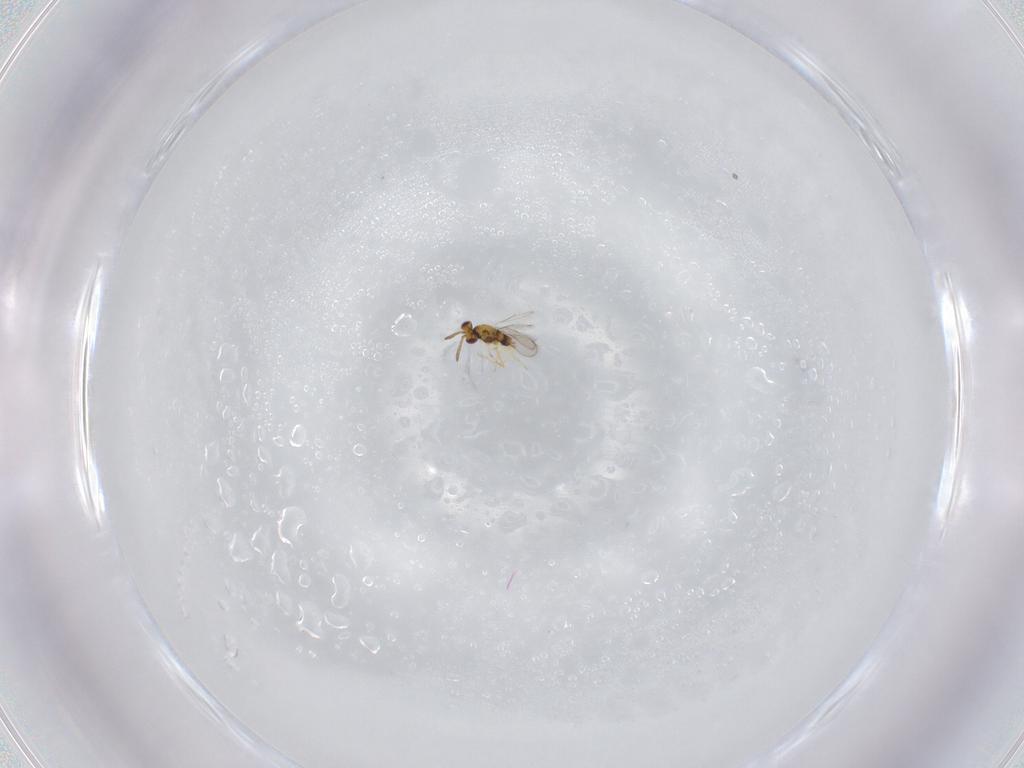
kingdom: Animalia
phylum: Arthropoda
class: Insecta
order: Hymenoptera
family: Aphelinidae
